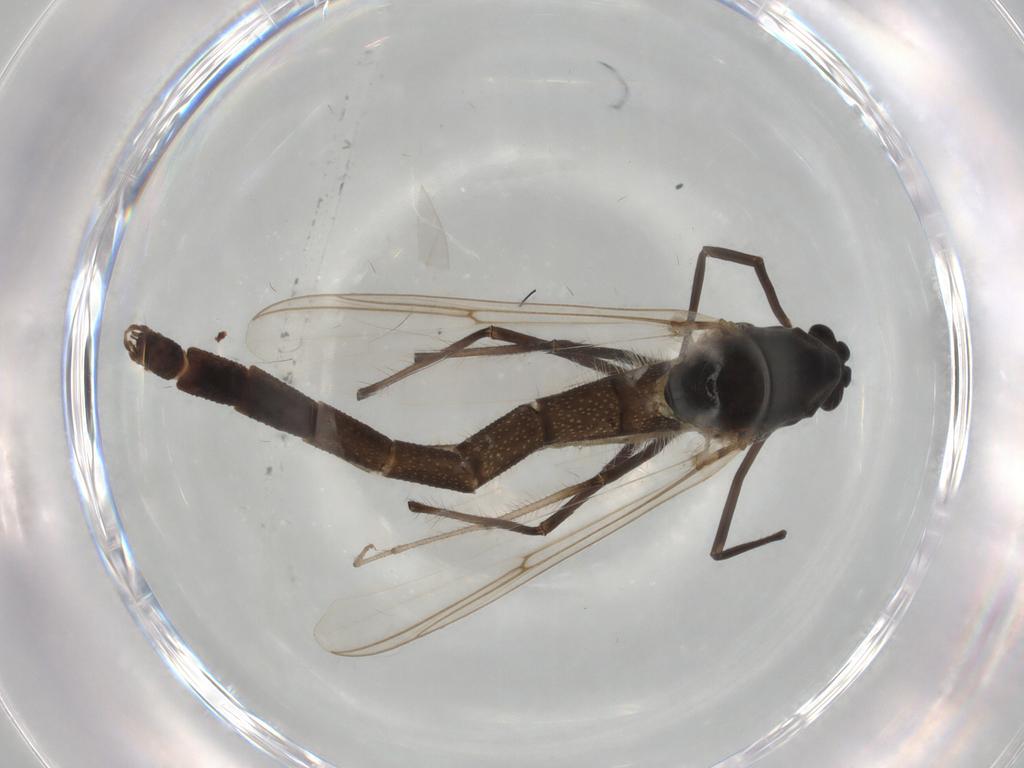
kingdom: Animalia
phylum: Arthropoda
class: Insecta
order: Diptera
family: Chironomidae
